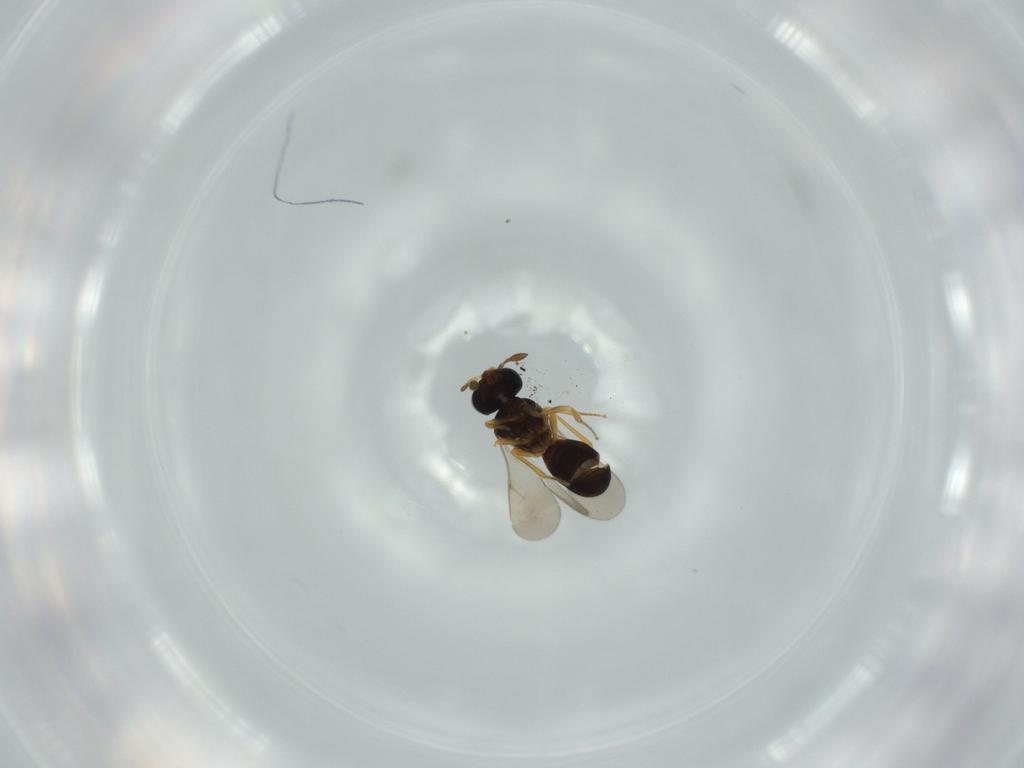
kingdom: Animalia
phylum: Arthropoda
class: Insecta
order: Hymenoptera
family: Scelionidae
